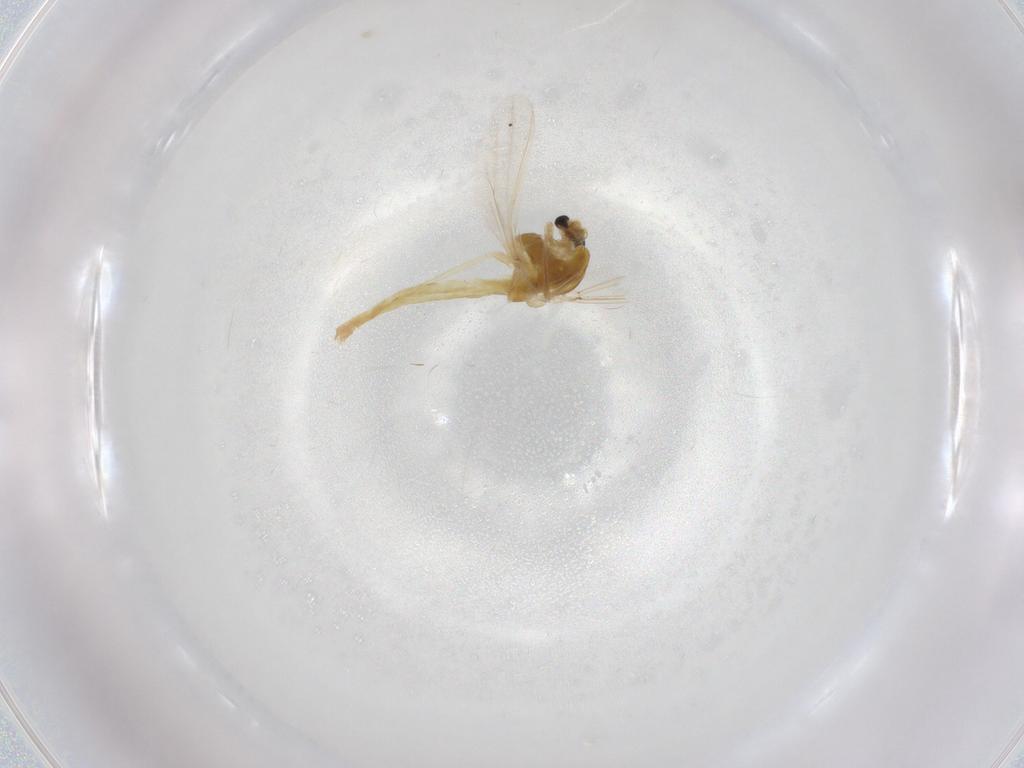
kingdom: Animalia
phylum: Arthropoda
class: Insecta
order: Diptera
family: Chironomidae
